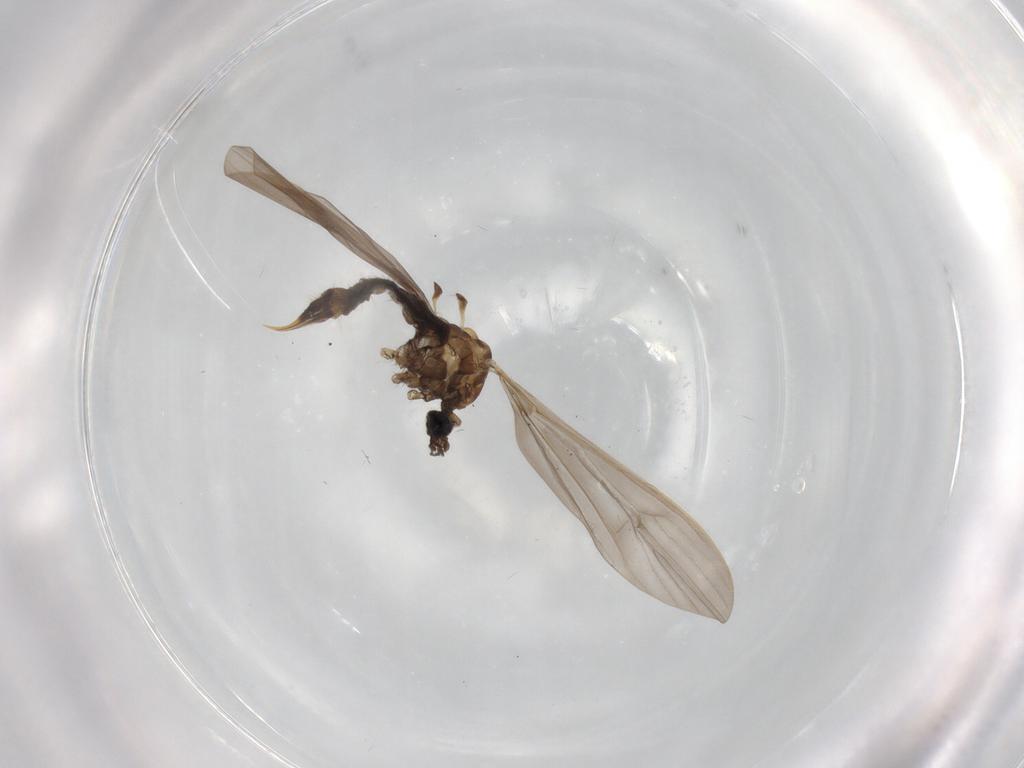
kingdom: Animalia
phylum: Arthropoda
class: Insecta
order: Diptera
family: Limoniidae
